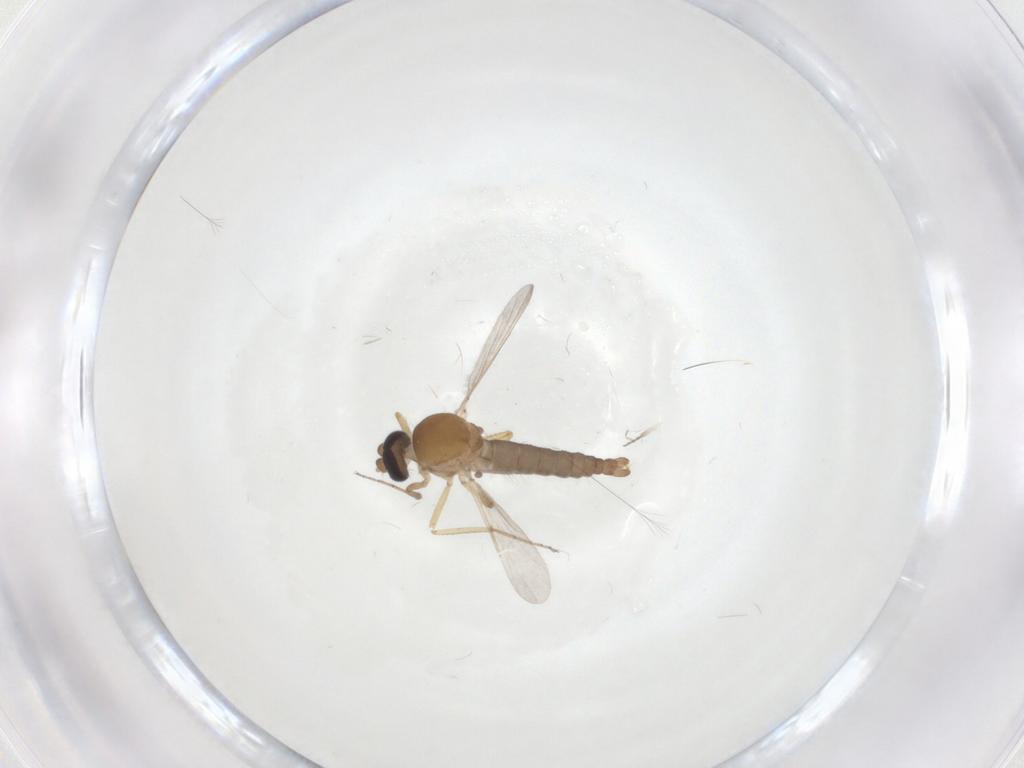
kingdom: Animalia
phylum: Arthropoda
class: Insecta
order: Diptera
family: Ceratopogonidae
